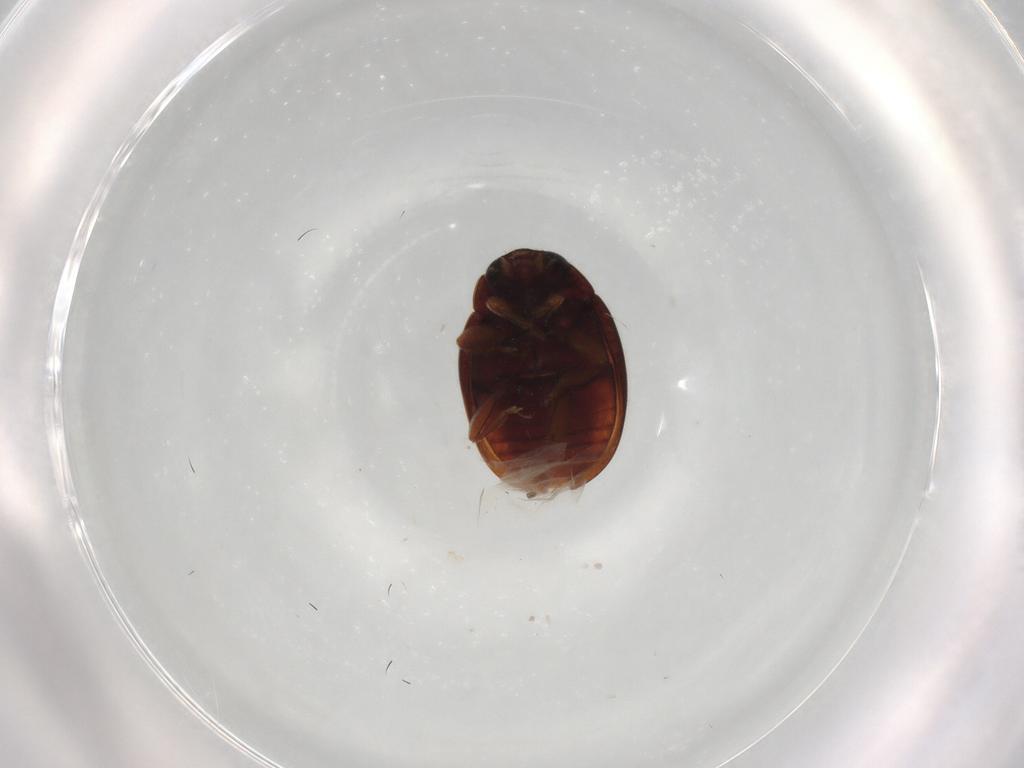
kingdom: Animalia
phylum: Arthropoda
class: Insecta
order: Coleoptera
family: Coccinellidae
